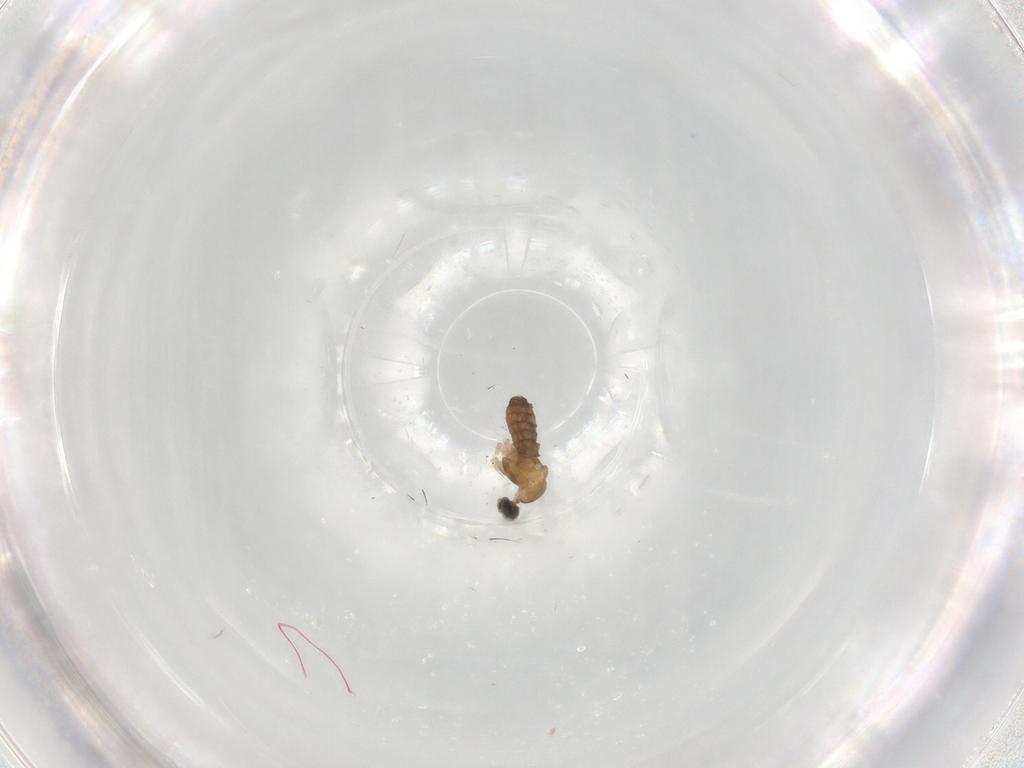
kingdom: Animalia
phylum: Arthropoda
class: Insecta
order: Diptera
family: Cecidomyiidae
